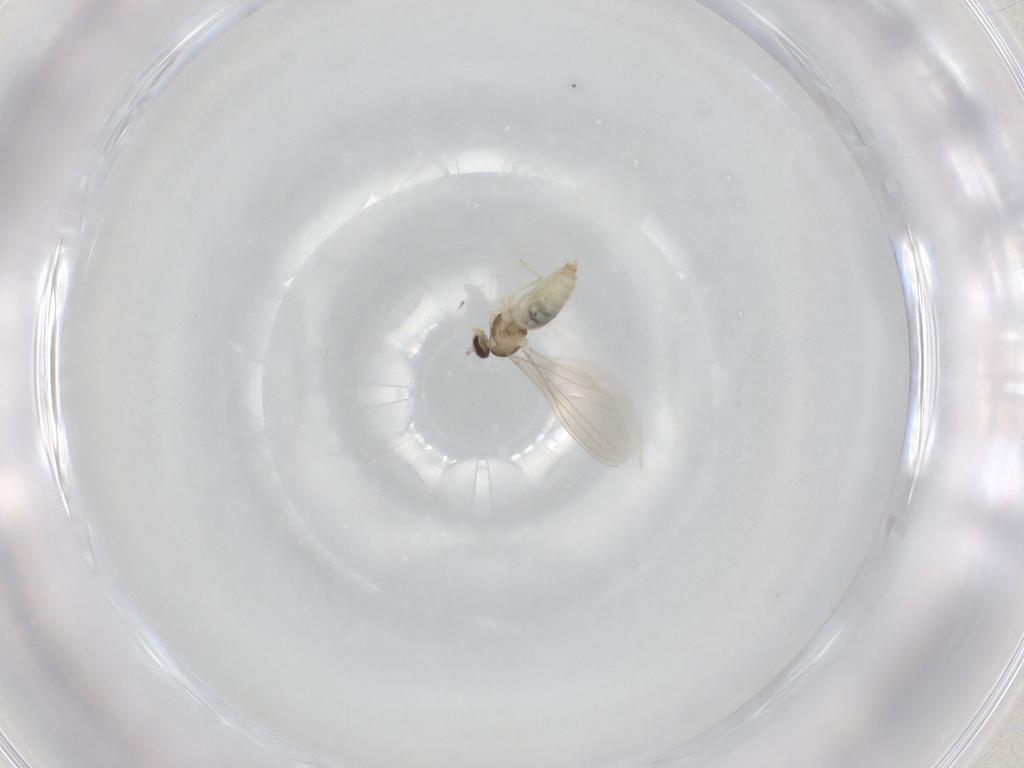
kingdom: Animalia
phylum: Arthropoda
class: Insecta
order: Diptera
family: Chironomidae
